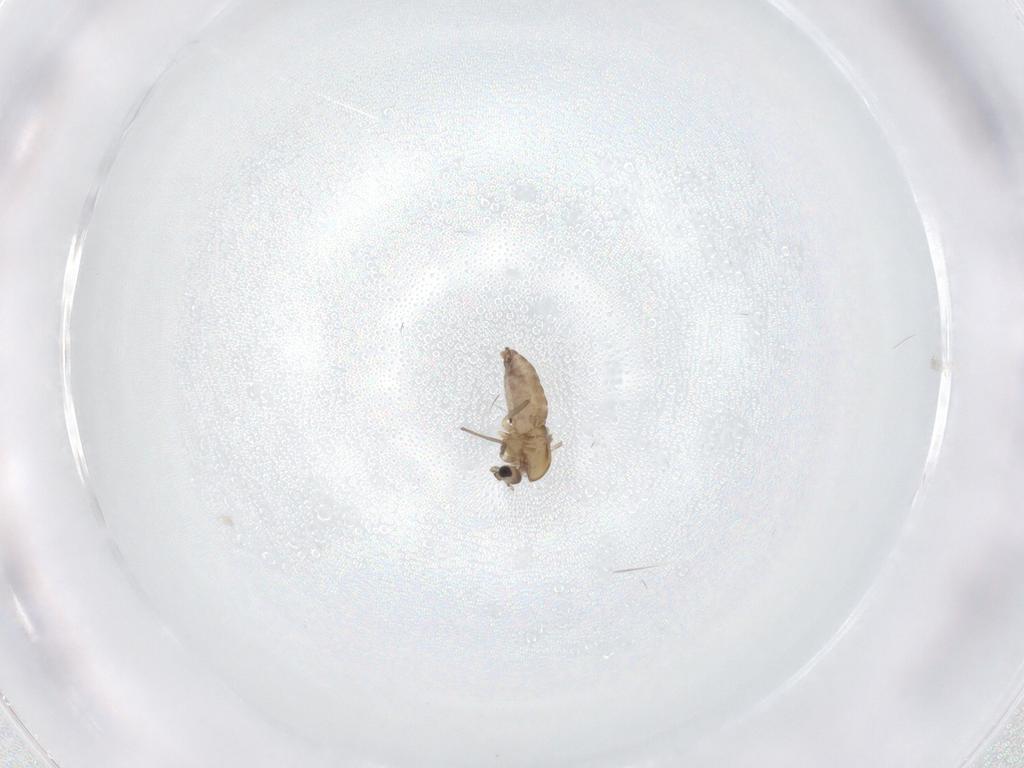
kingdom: Animalia
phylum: Arthropoda
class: Insecta
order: Diptera
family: Chironomidae
